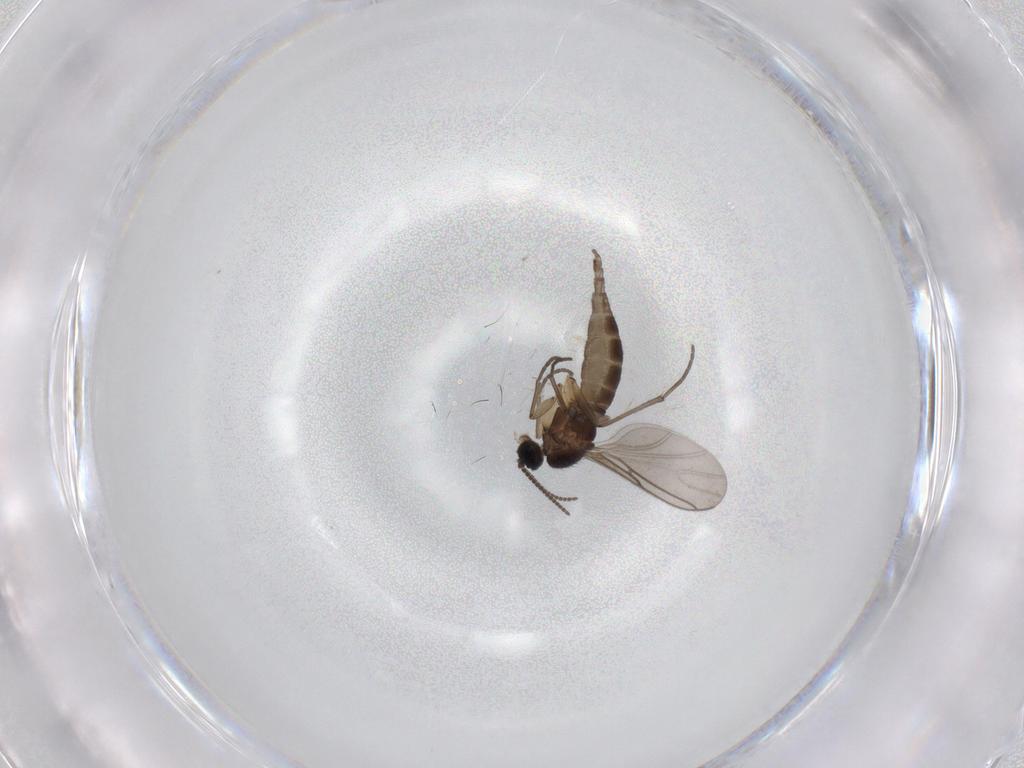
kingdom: Animalia
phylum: Arthropoda
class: Insecta
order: Diptera
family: Sciaridae
